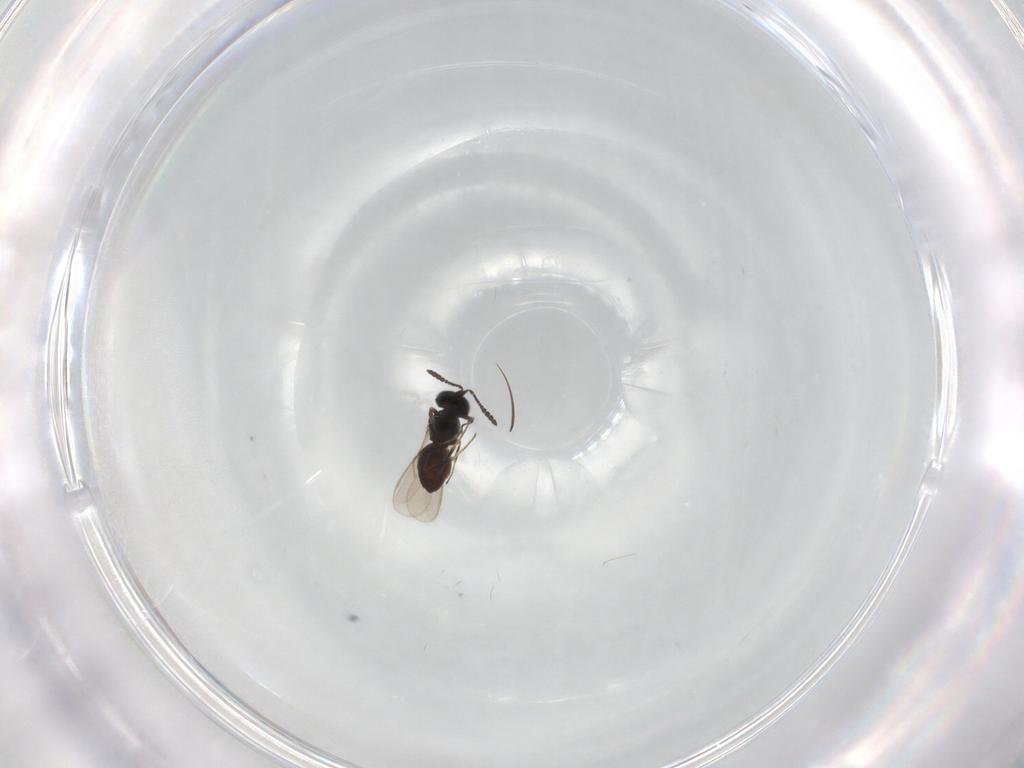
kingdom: Animalia
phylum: Arthropoda
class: Insecta
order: Hymenoptera
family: Scelionidae
